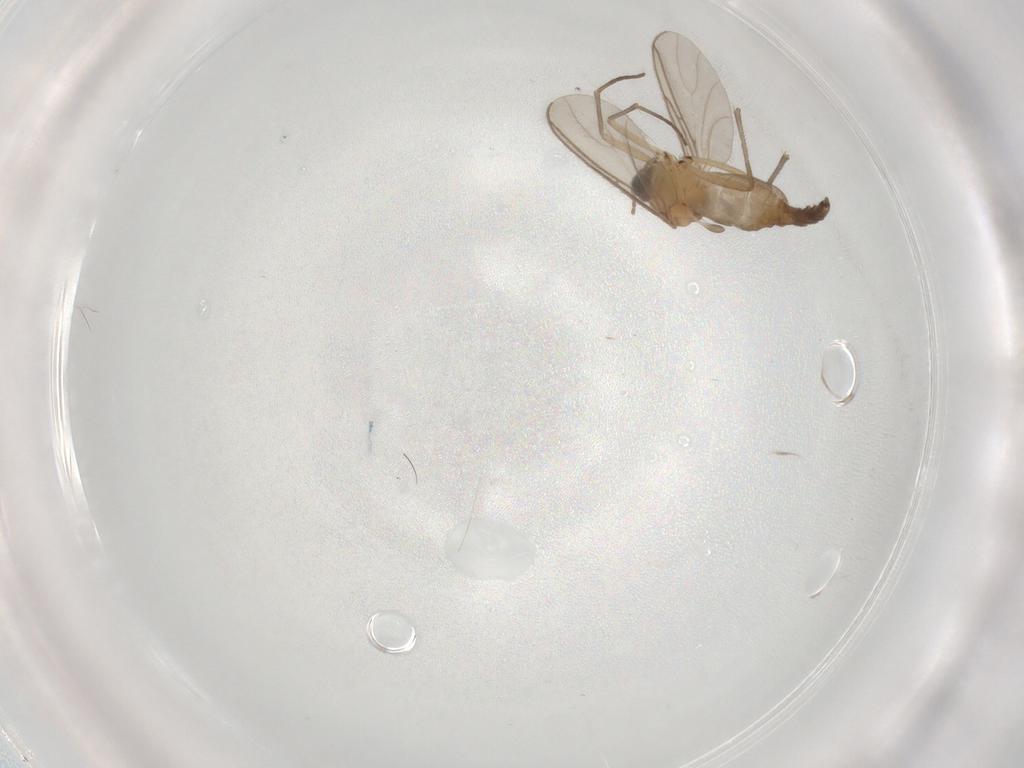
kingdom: Animalia
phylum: Arthropoda
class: Insecta
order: Diptera
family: Sciaridae
